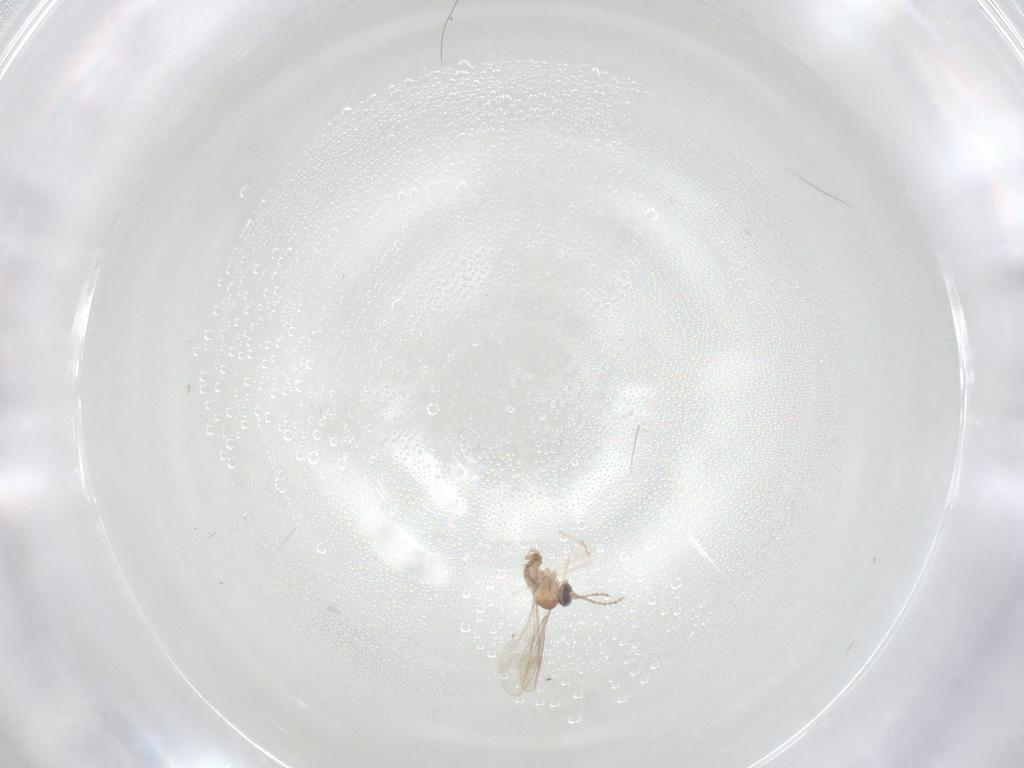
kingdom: Animalia
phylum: Arthropoda
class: Insecta
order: Diptera
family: Cecidomyiidae
